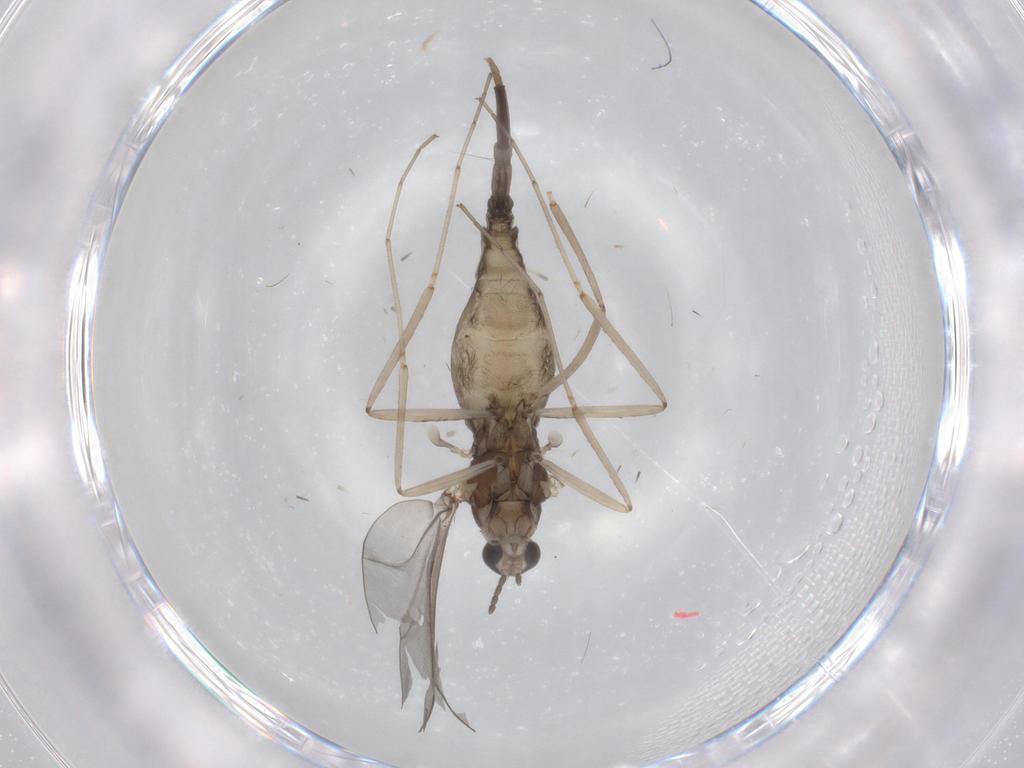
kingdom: Animalia
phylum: Arthropoda
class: Insecta
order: Diptera
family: Cecidomyiidae
